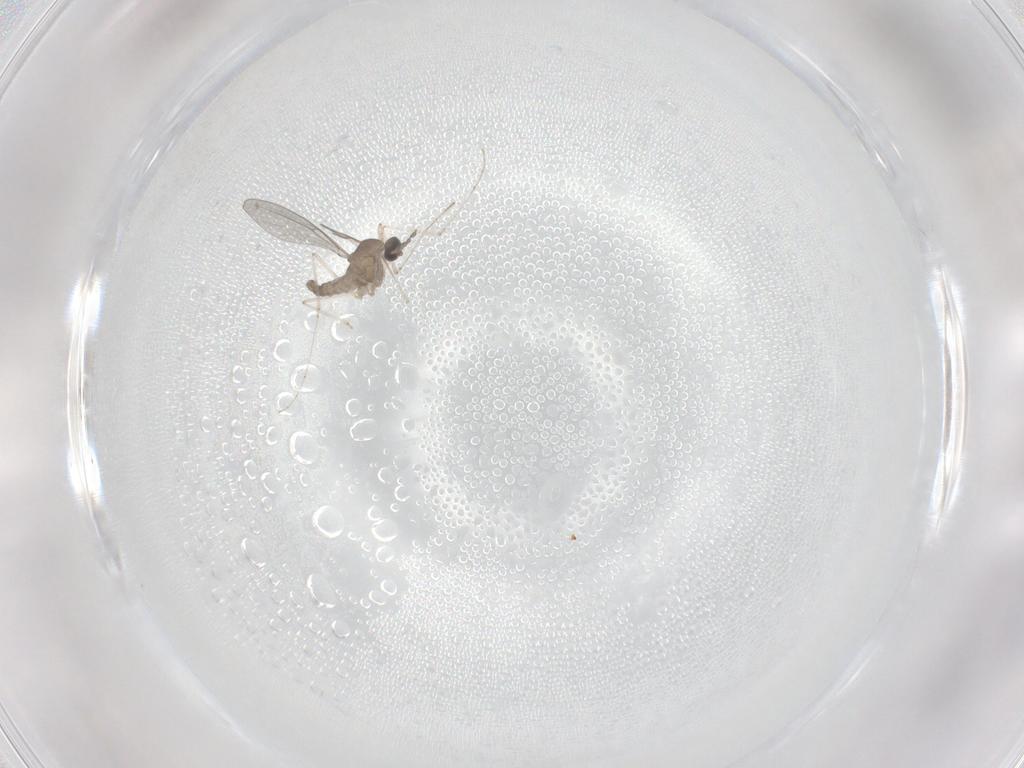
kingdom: Animalia
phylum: Arthropoda
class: Insecta
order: Diptera
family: Cecidomyiidae
